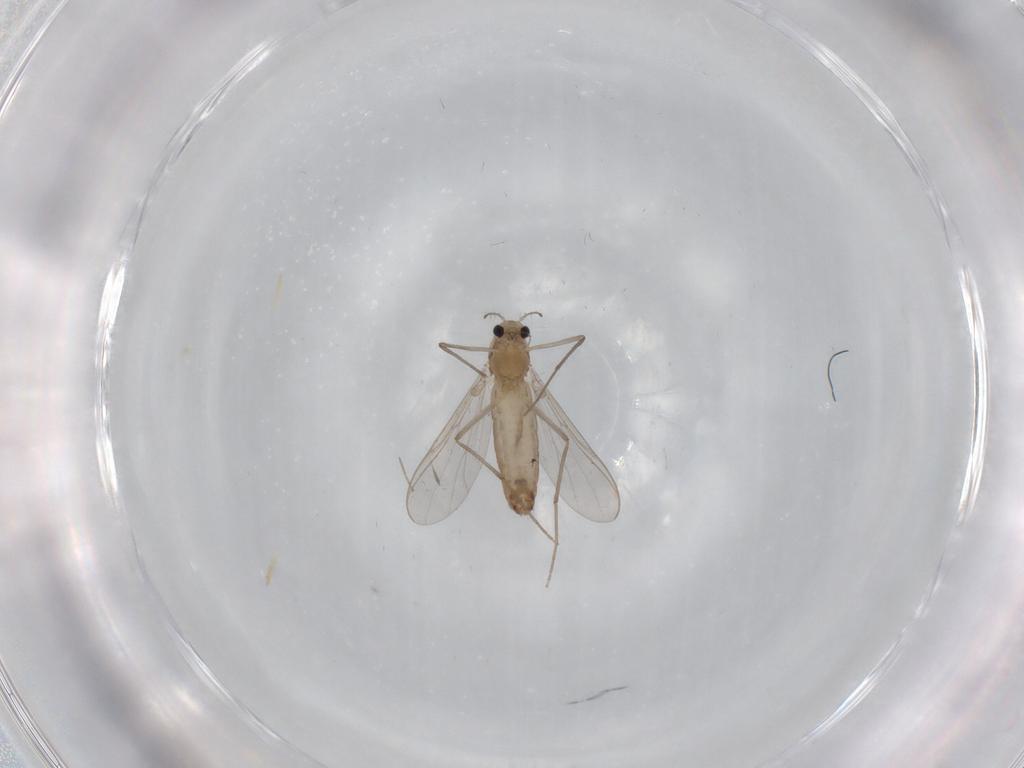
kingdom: Animalia
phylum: Arthropoda
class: Insecta
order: Diptera
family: Chironomidae
